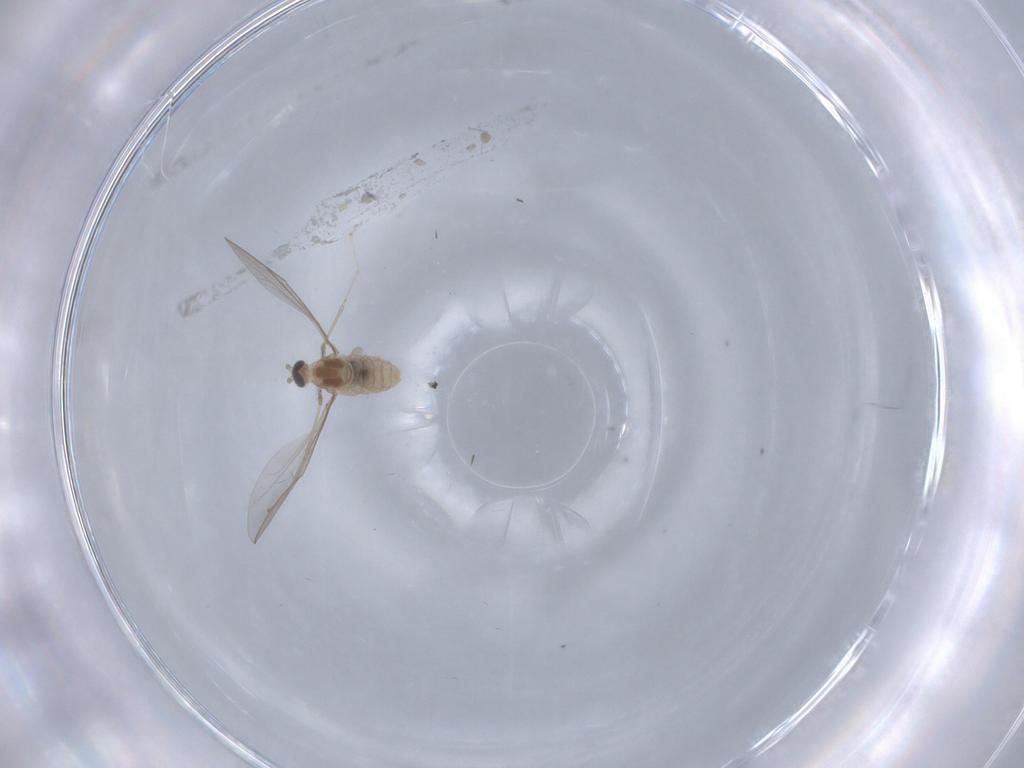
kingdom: Animalia
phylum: Arthropoda
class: Insecta
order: Diptera
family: Cecidomyiidae
